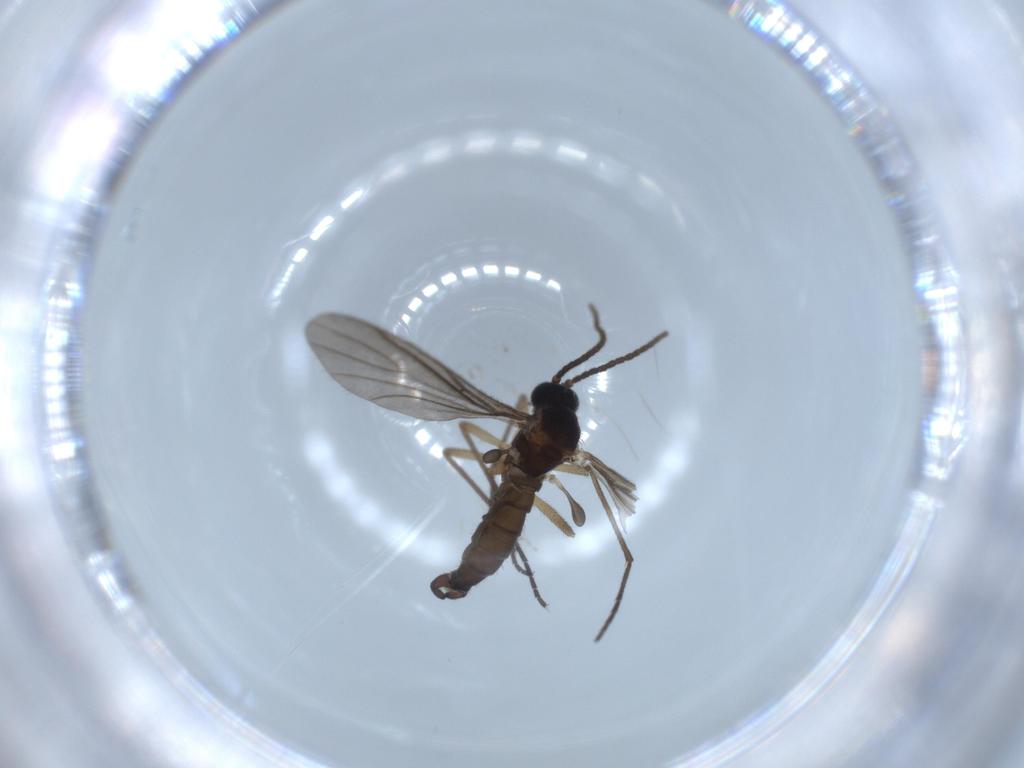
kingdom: Animalia
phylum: Arthropoda
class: Insecta
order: Diptera
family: Sciaridae
